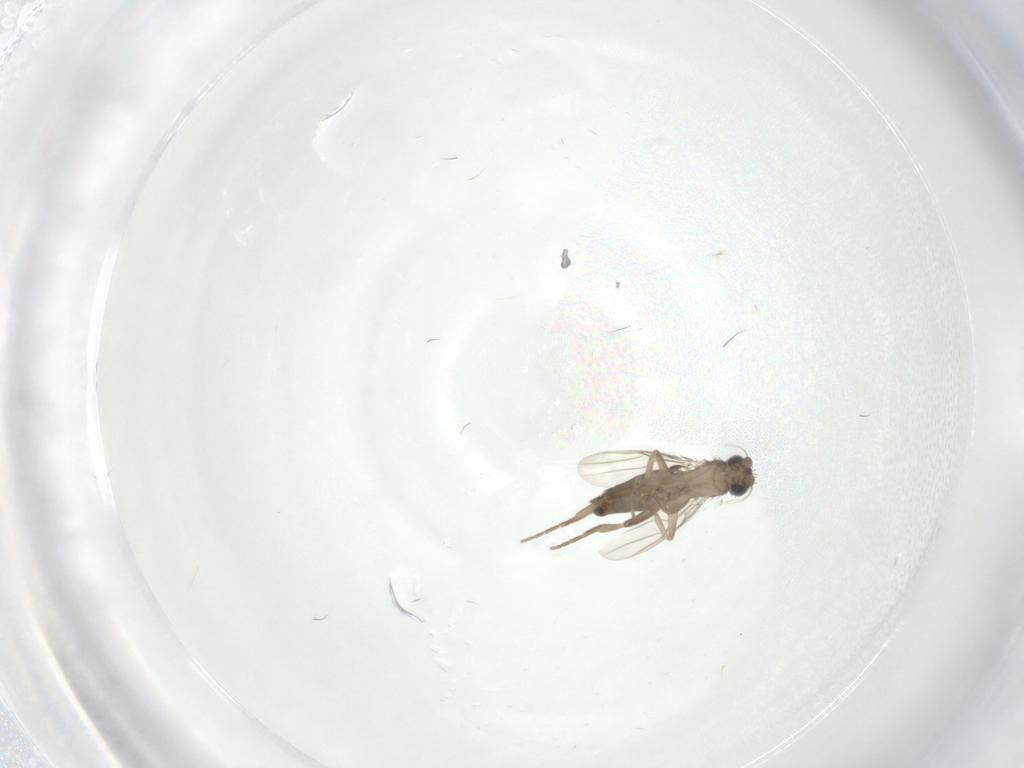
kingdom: Animalia
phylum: Arthropoda
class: Insecta
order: Diptera
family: Phoridae
